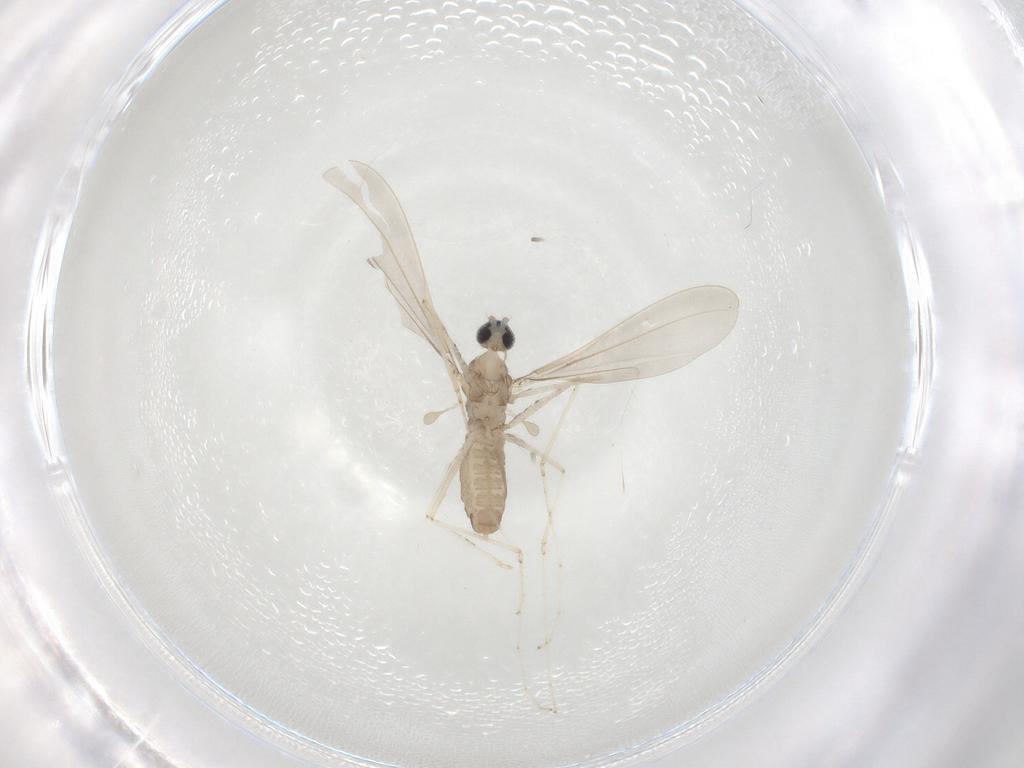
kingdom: Animalia
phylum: Arthropoda
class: Insecta
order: Diptera
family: Cecidomyiidae
